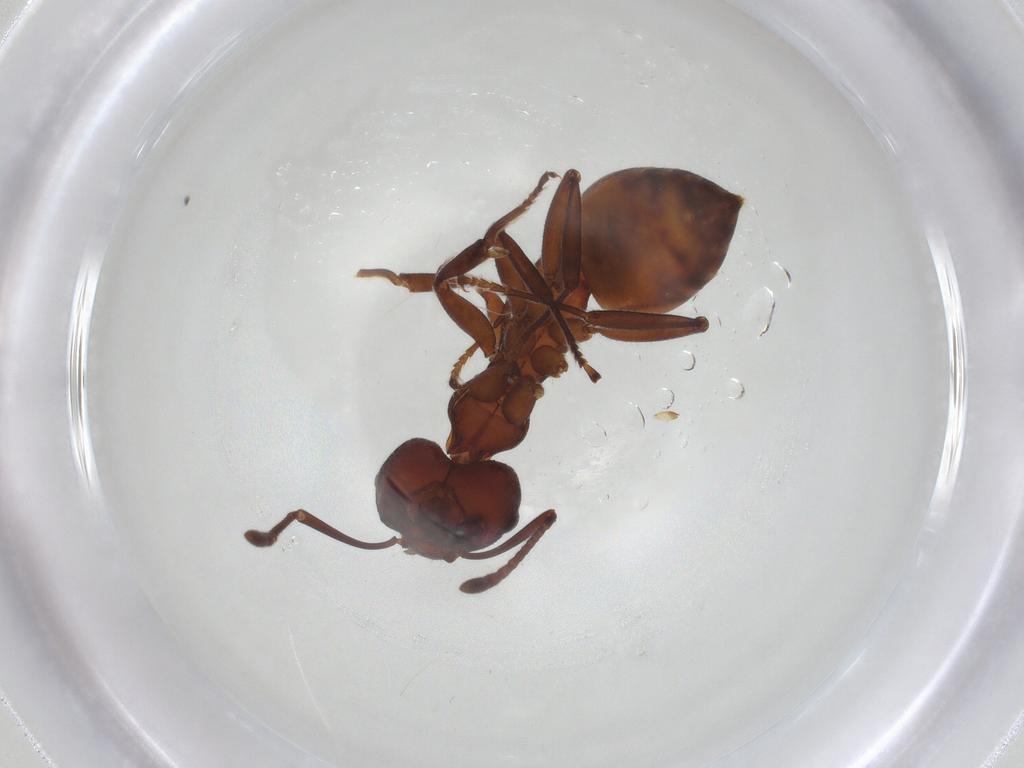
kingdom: Animalia
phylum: Arthropoda
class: Insecta
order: Hymenoptera
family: Formicidae
